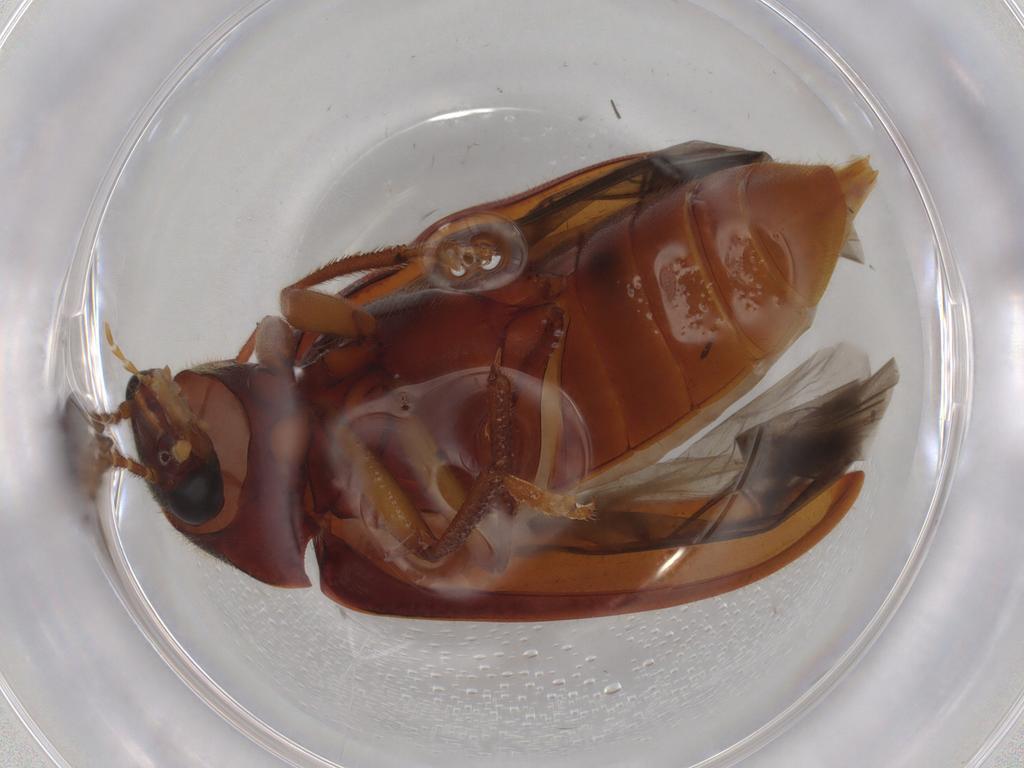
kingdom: Animalia
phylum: Arthropoda
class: Insecta
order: Coleoptera
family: Ptilodactylidae
